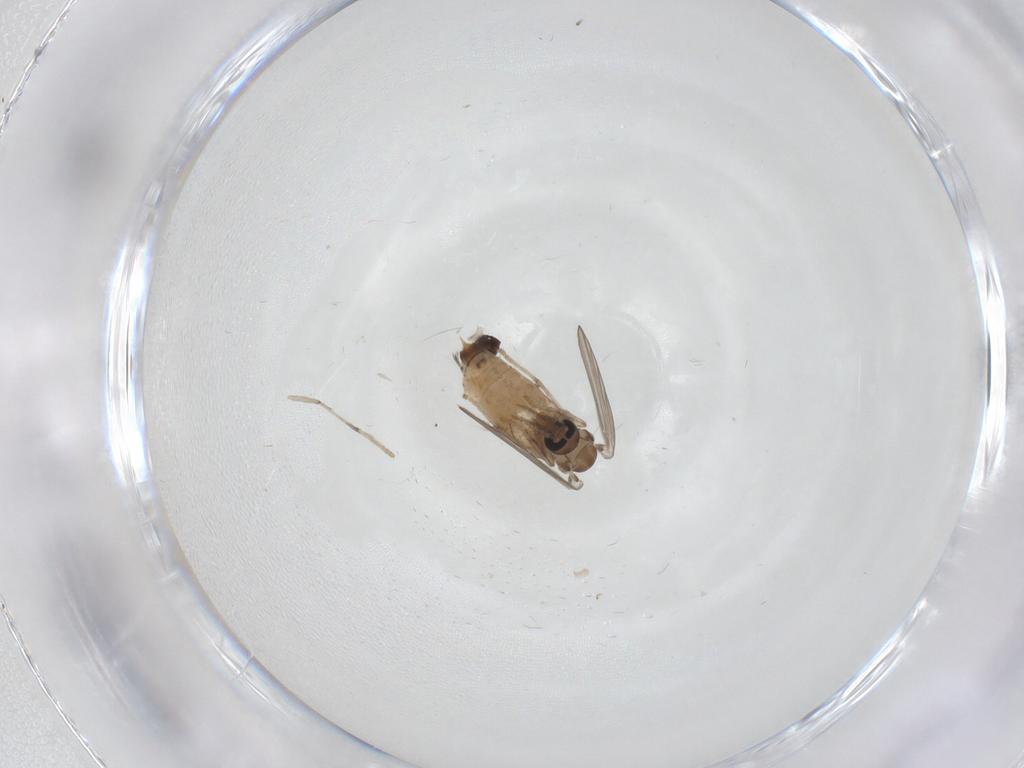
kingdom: Animalia
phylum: Arthropoda
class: Insecta
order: Diptera
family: Psychodidae
